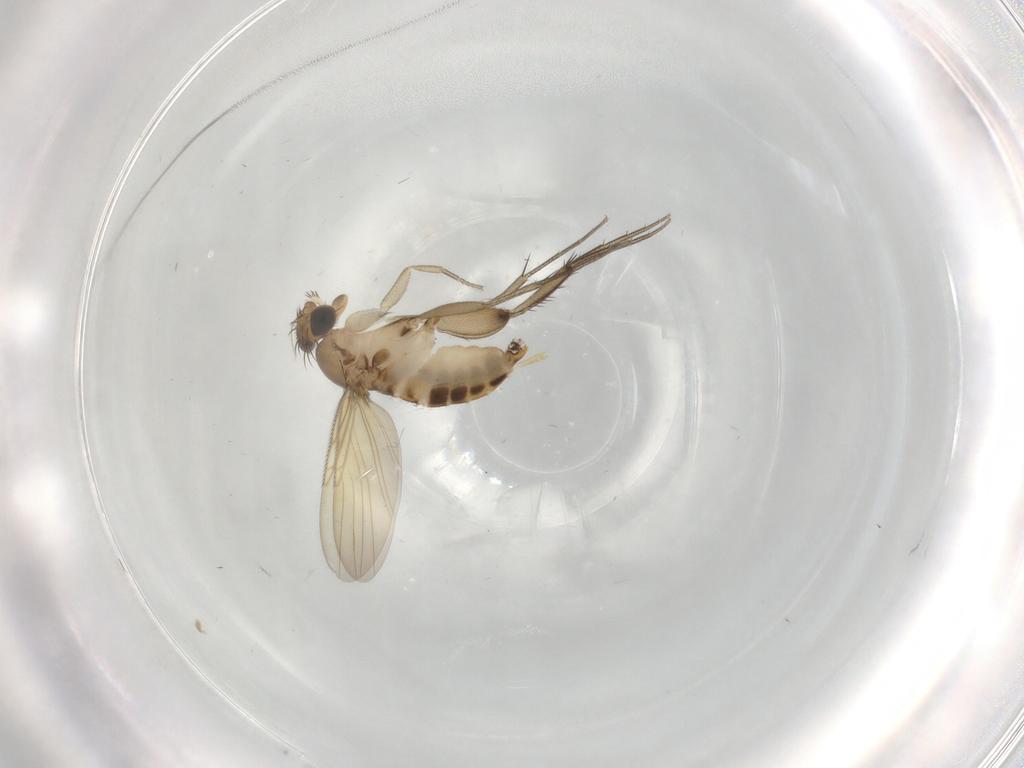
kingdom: Animalia
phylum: Arthropoda
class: Insecta
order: Diptera
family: Phoridae
